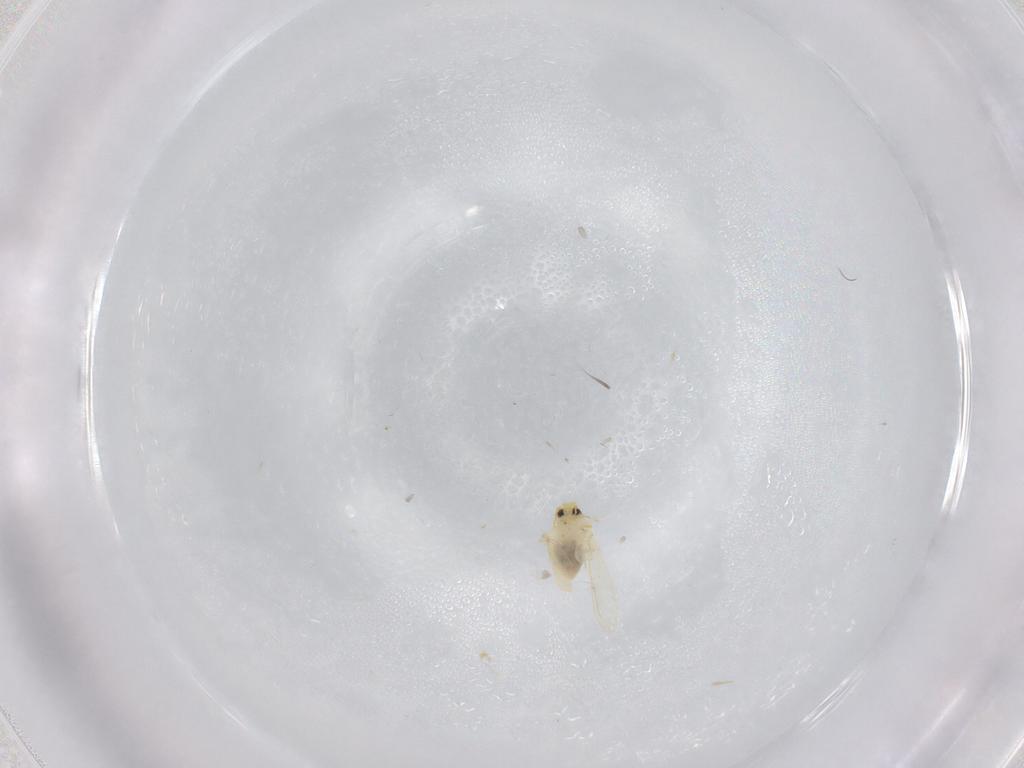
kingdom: Animalia
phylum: Arthropoda
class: Insecta
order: Hemiptera
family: Aleyrodidae
